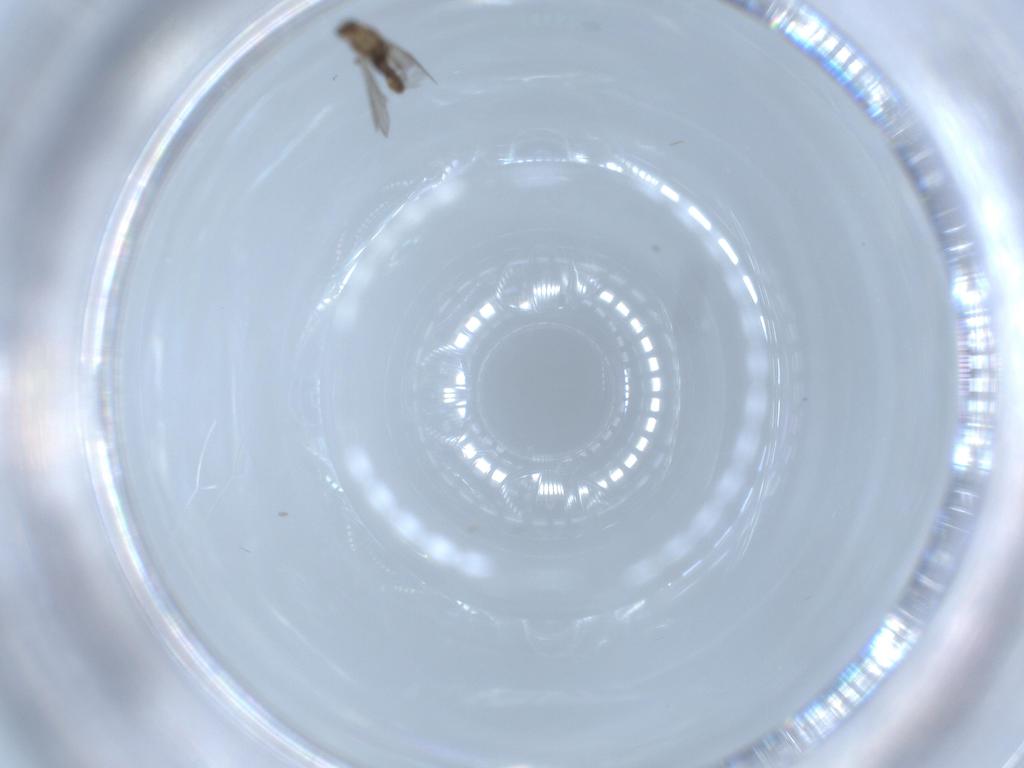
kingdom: Animalia
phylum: Arthropoda
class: Insecta
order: Diptera
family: Chironomidae
